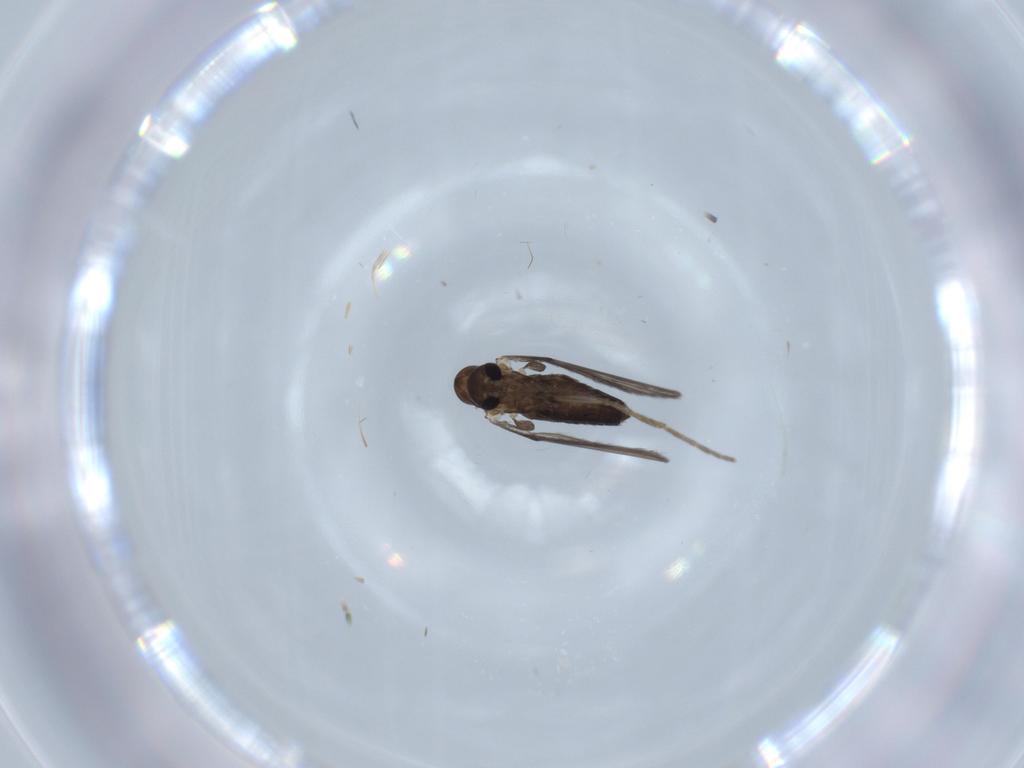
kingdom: Animalia
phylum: Arthropoda
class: Insecta
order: Diptera
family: Psychodidae
